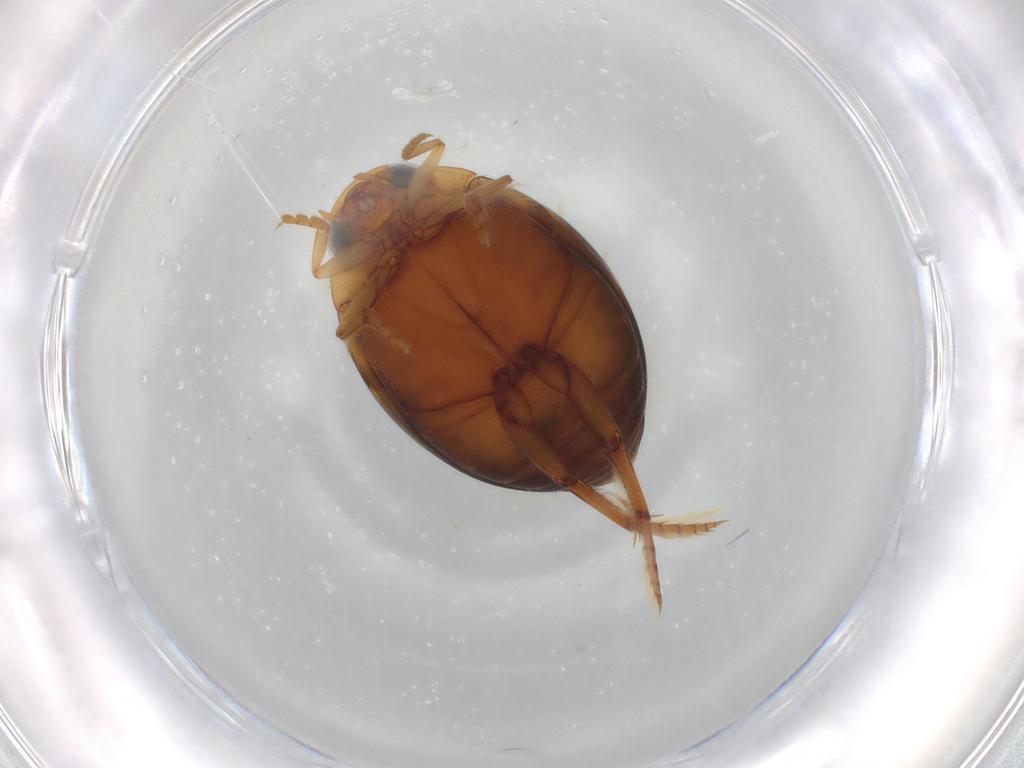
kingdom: Animalia
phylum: Arthropoda
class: Insecta
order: Coleoptera
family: Dytiscidae
